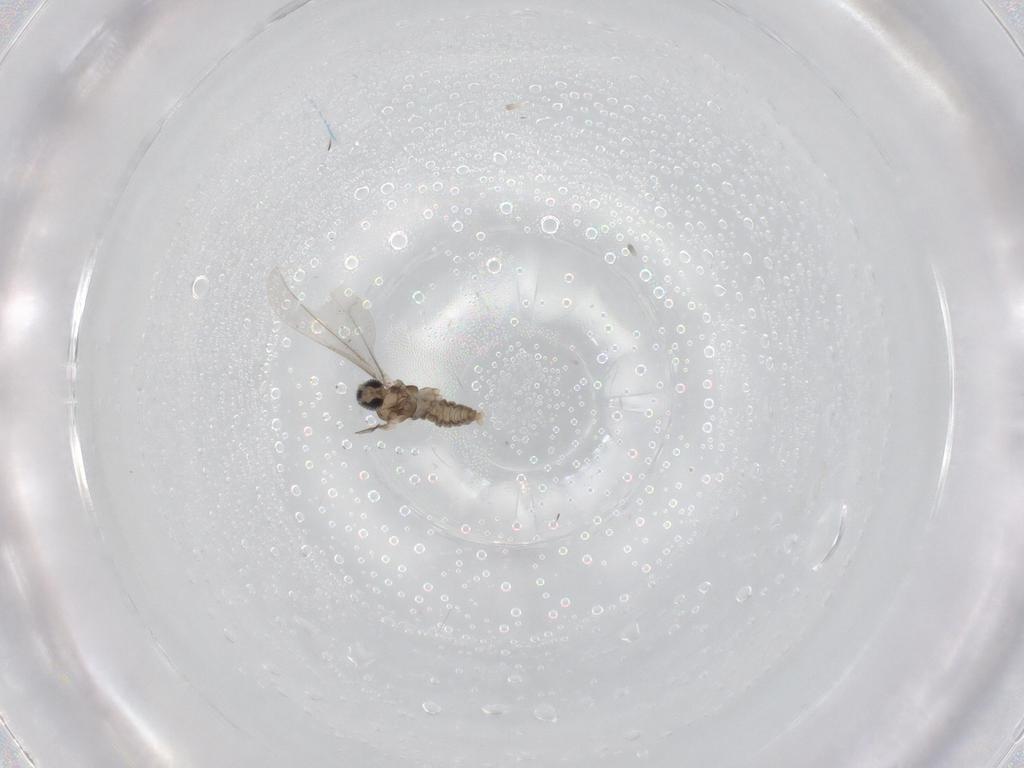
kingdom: Animalia
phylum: Arthropoda
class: Insecta
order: Diptera
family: Cecidomyiidae
